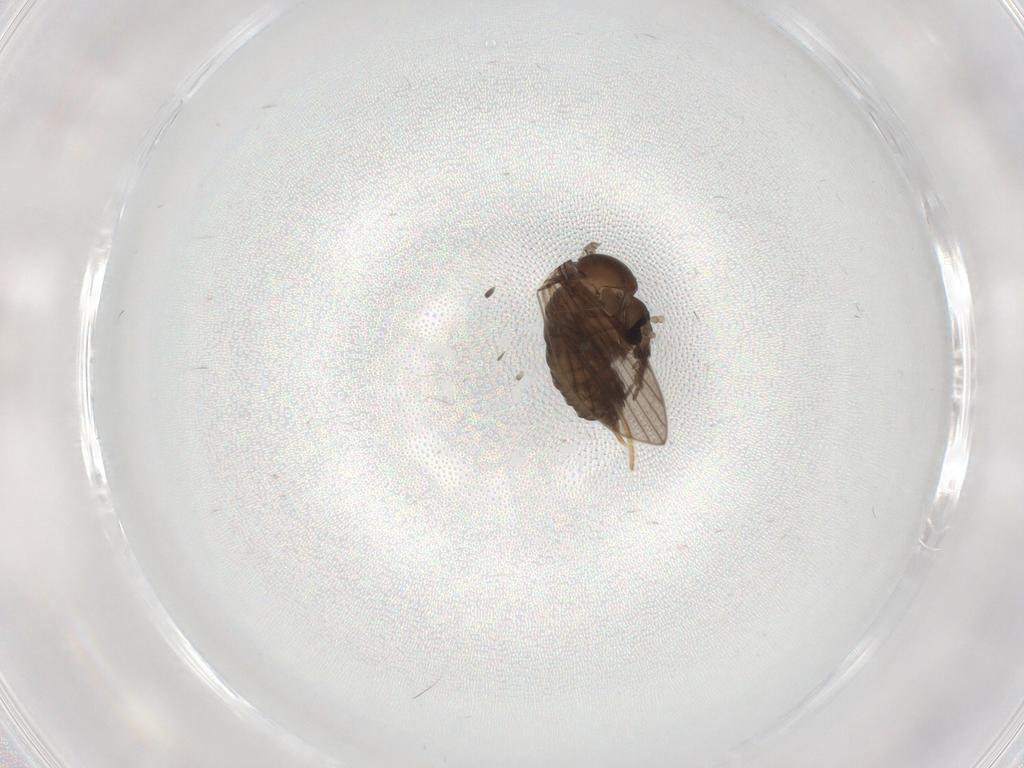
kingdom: Animalia
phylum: Arthropoda
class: Insecta
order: Diptera
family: Psychodidae
